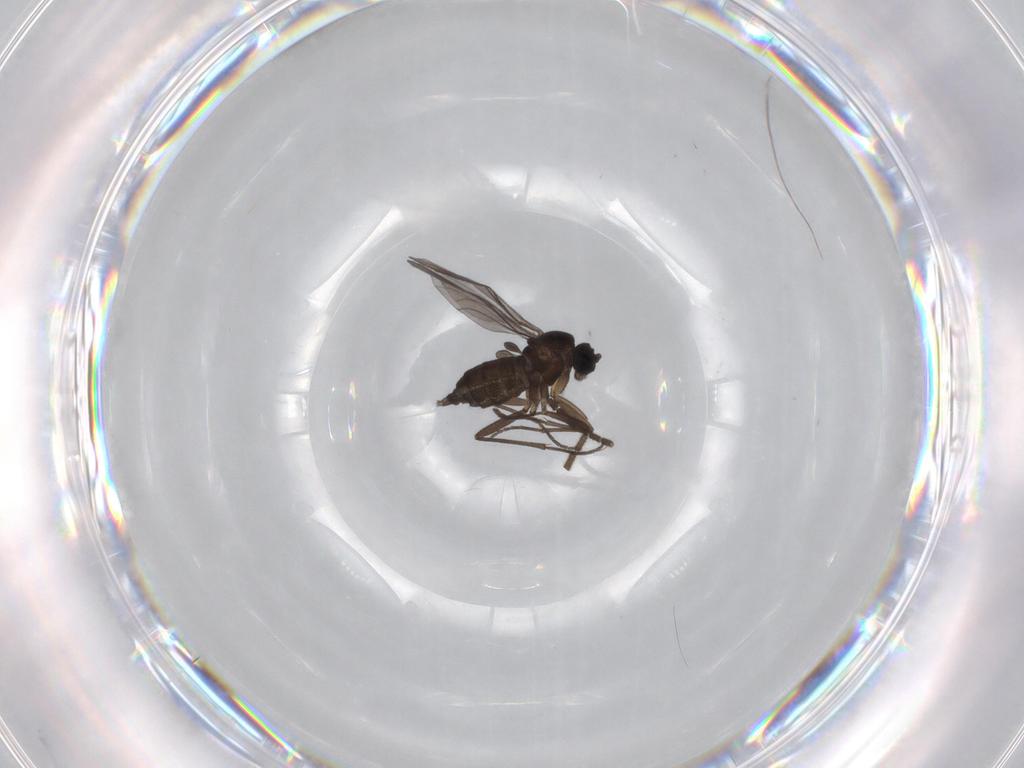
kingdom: Animalia
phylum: Arthropoda
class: Insecta
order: Diptera
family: Sciaridae
